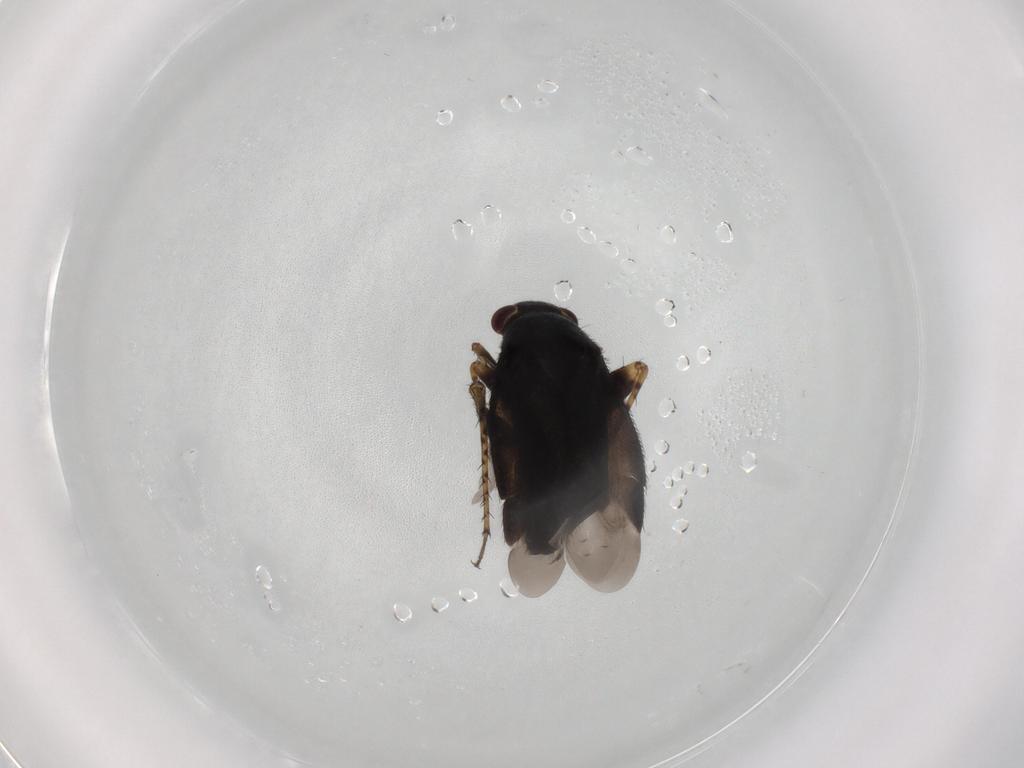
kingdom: Animalia
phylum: Arthropoda
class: Insecta
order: Hemiptera
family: Miridae
